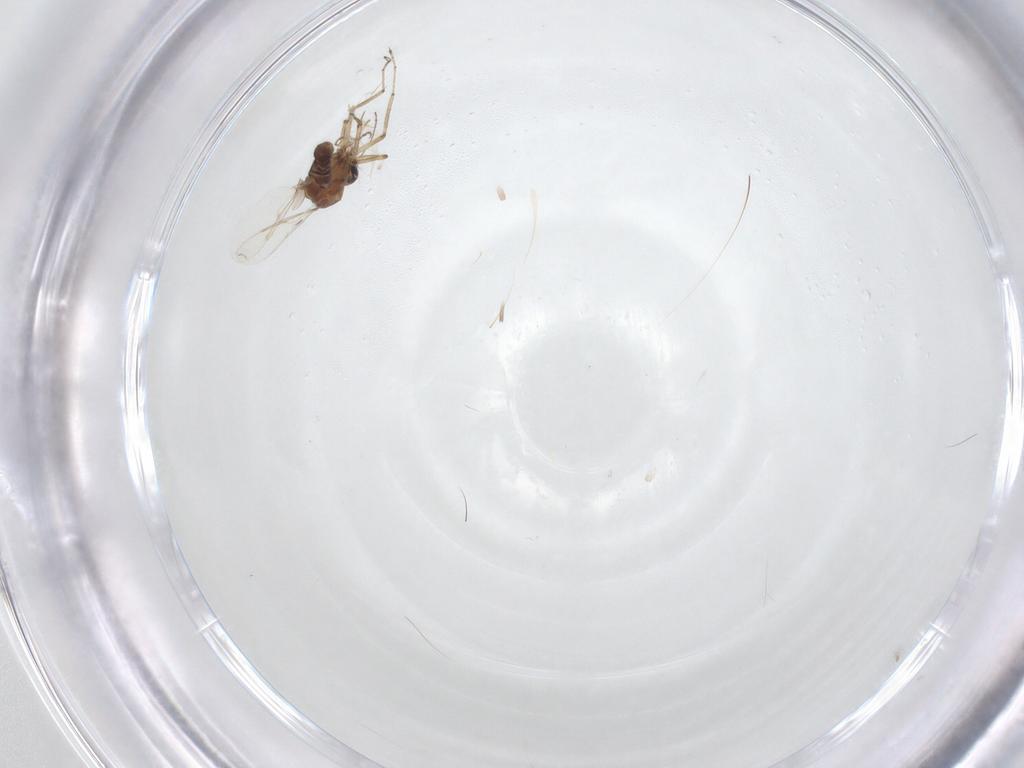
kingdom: Animalia
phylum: Arthropoda
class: Insecta
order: Diptera
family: Ceratopogonidae
